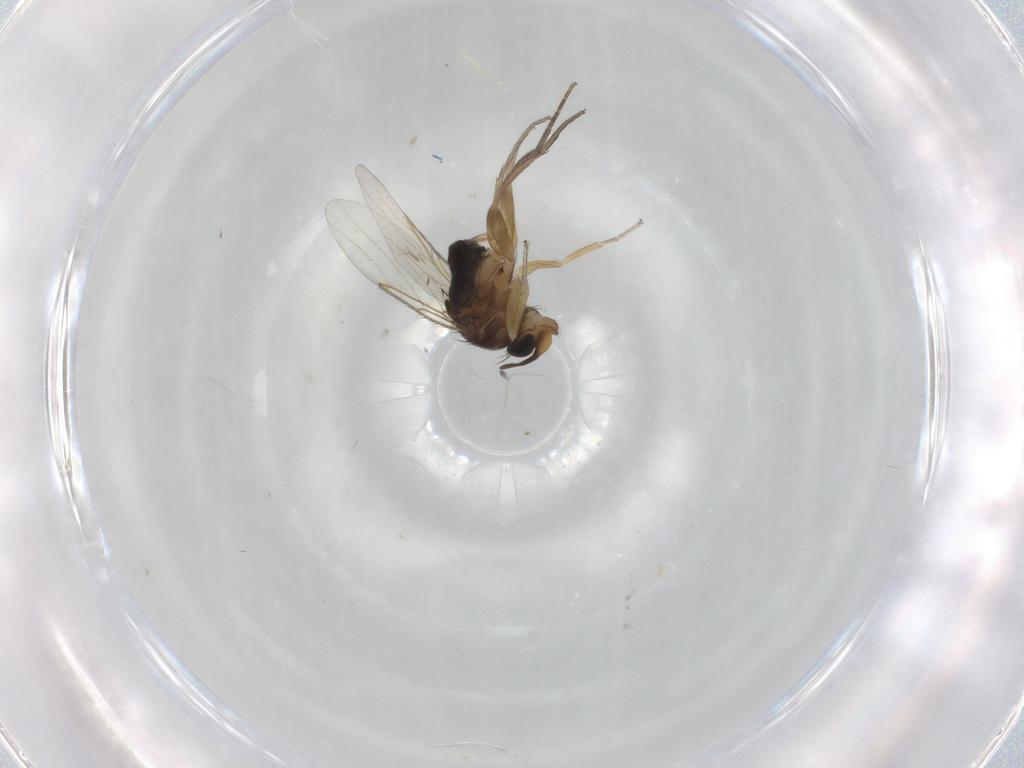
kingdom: Animalia
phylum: Arthropoda
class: Insecta
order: Diptera
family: Phoridae
